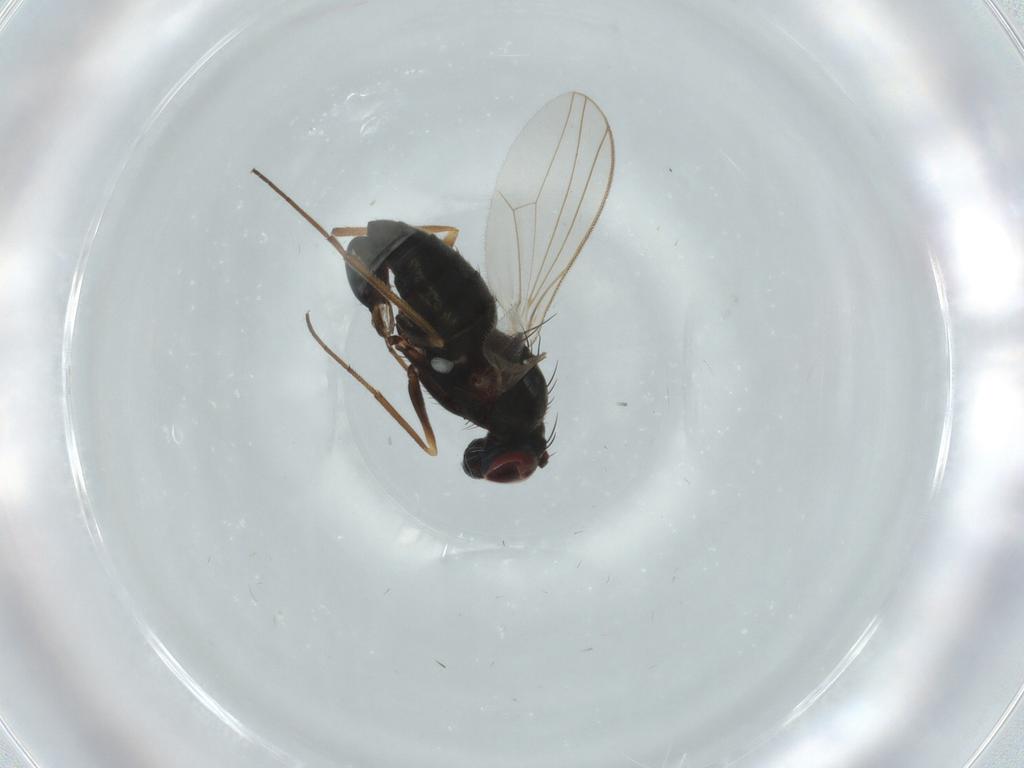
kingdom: Animalia
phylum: Arthropoda
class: Insecta
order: Diptera
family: Dolichopodidae
